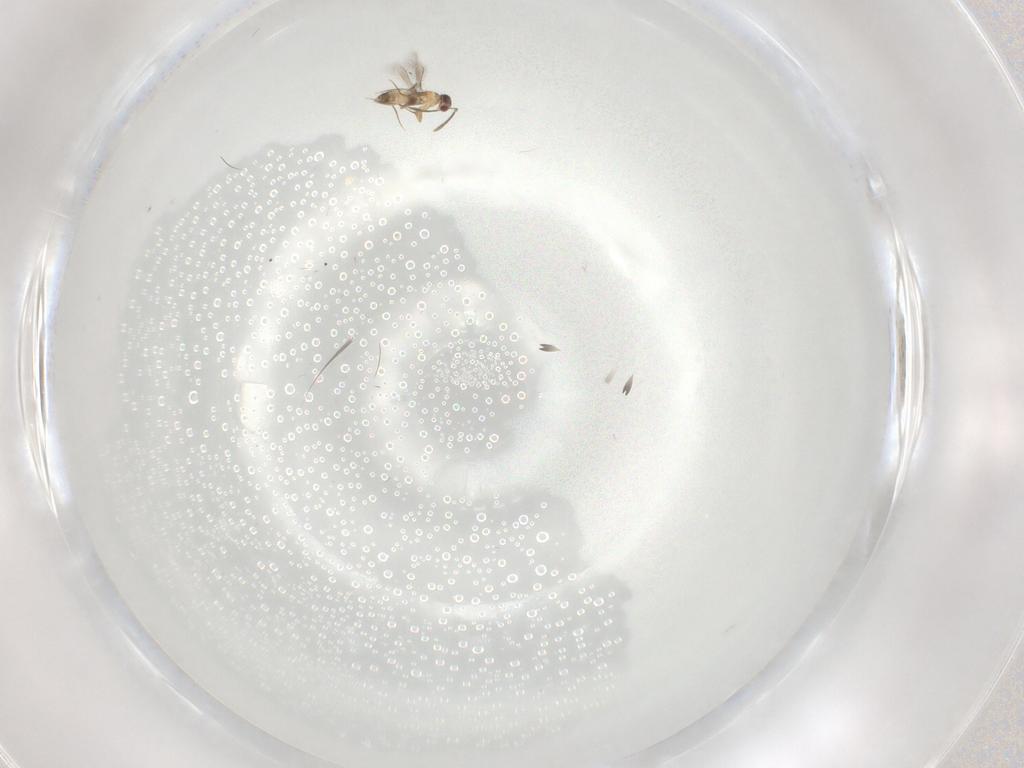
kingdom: Animalia
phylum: Arthropoda
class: Insecta
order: Hymenoptera
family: Mymaridae
